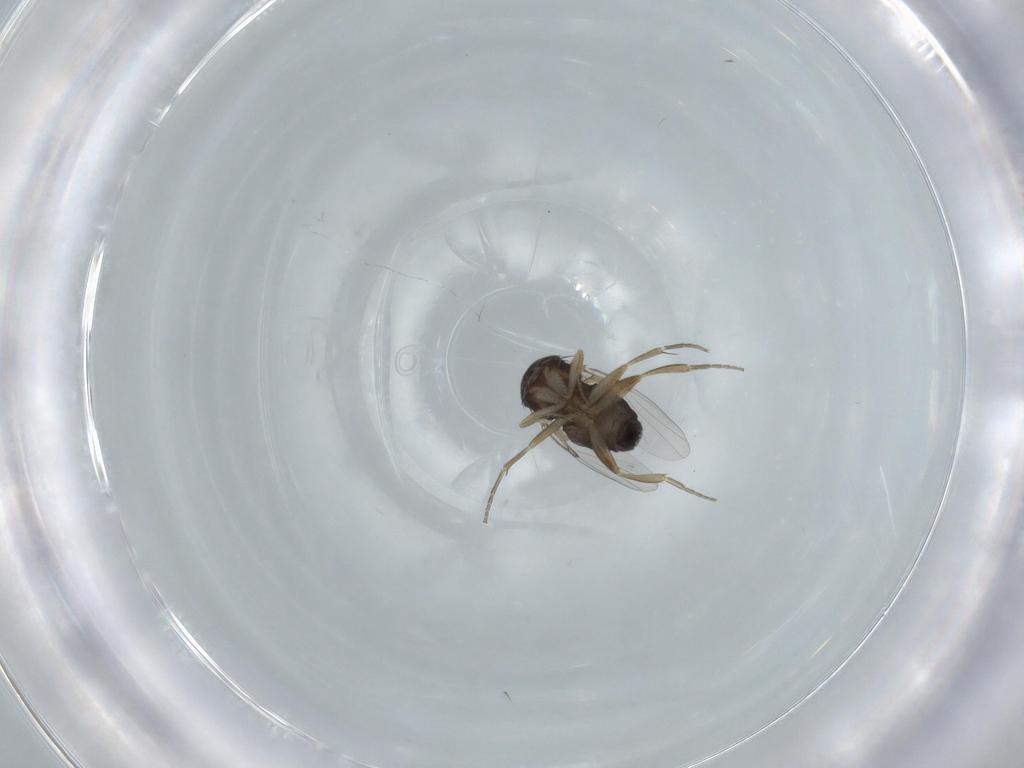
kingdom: Animalia
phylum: Arthropoda
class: Insecta
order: Diptera
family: Phoridae
